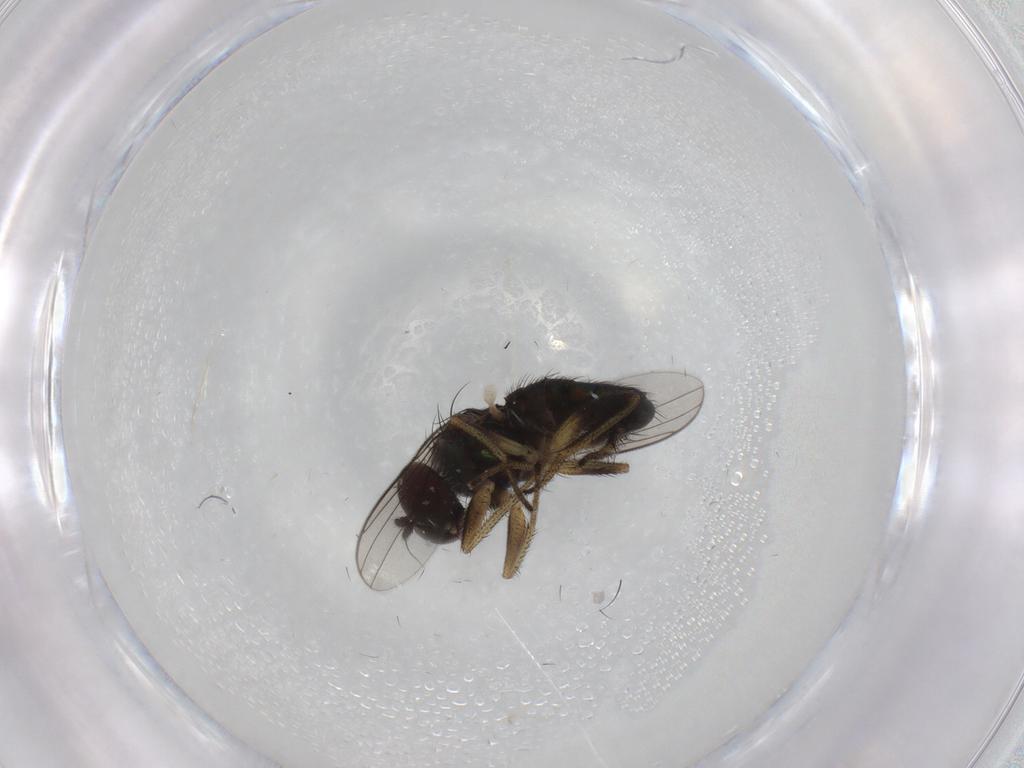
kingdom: Animalia
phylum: Arthropoda
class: Insecta
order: Diptera
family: Dolichopodidae
